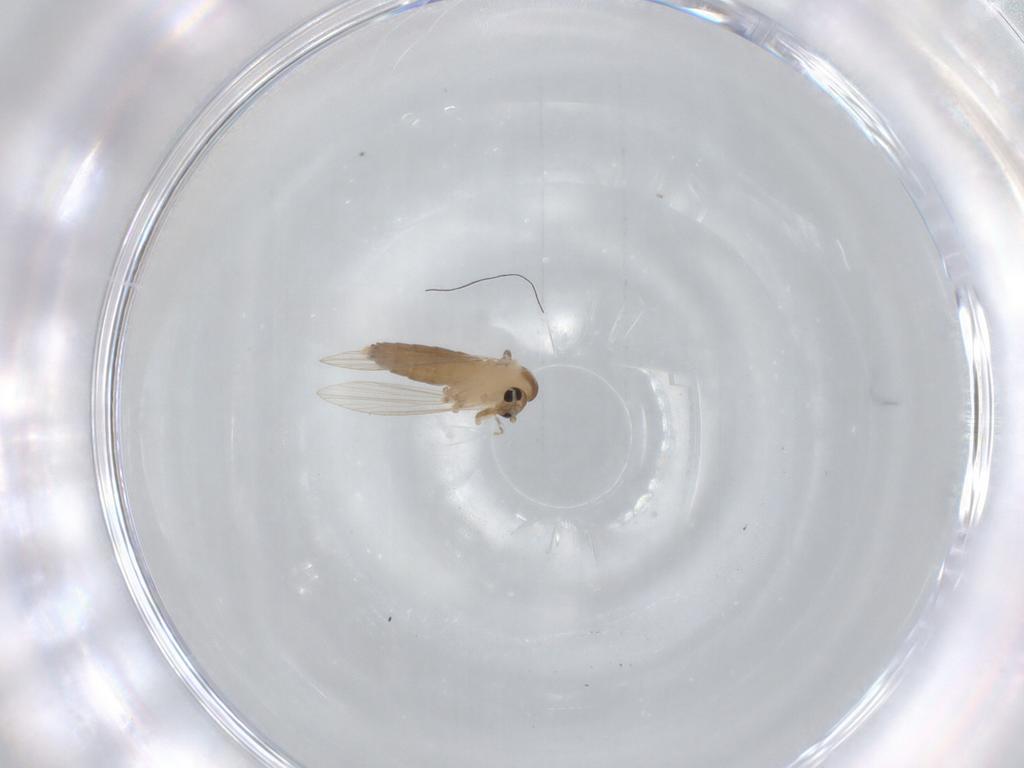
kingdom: Animalia
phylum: Arthropoda
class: Insecta
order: Diptera
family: Psychodidae
